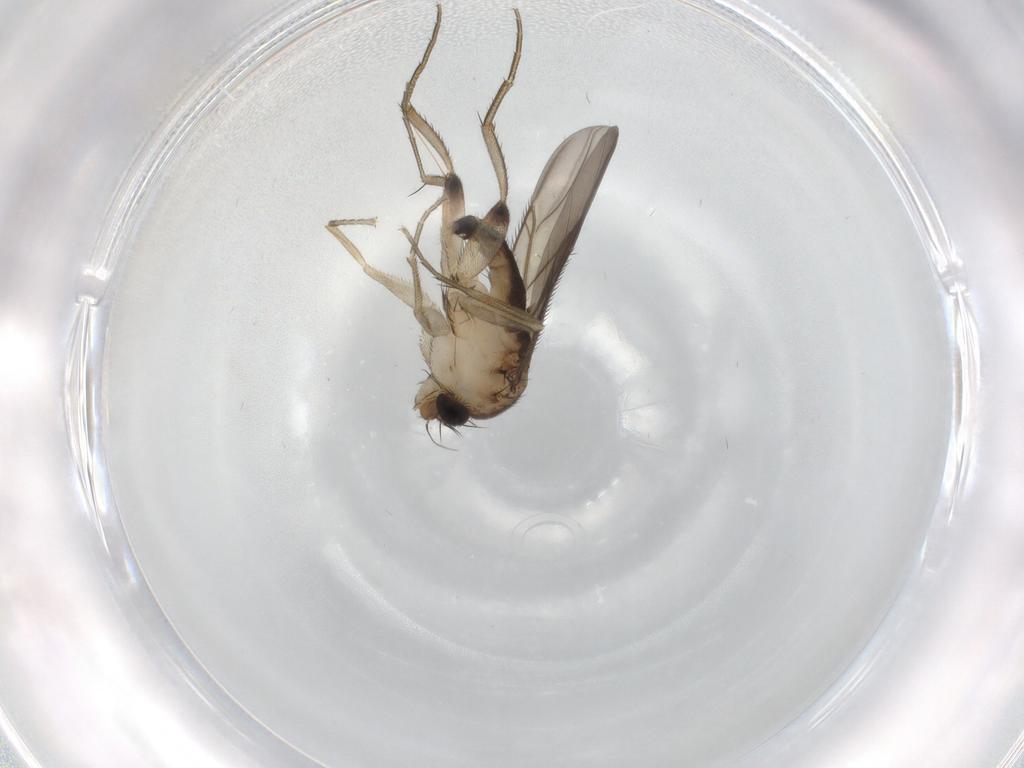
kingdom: Animalia
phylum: Arthropoda
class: Insecta
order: Diptera
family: Phoridae
